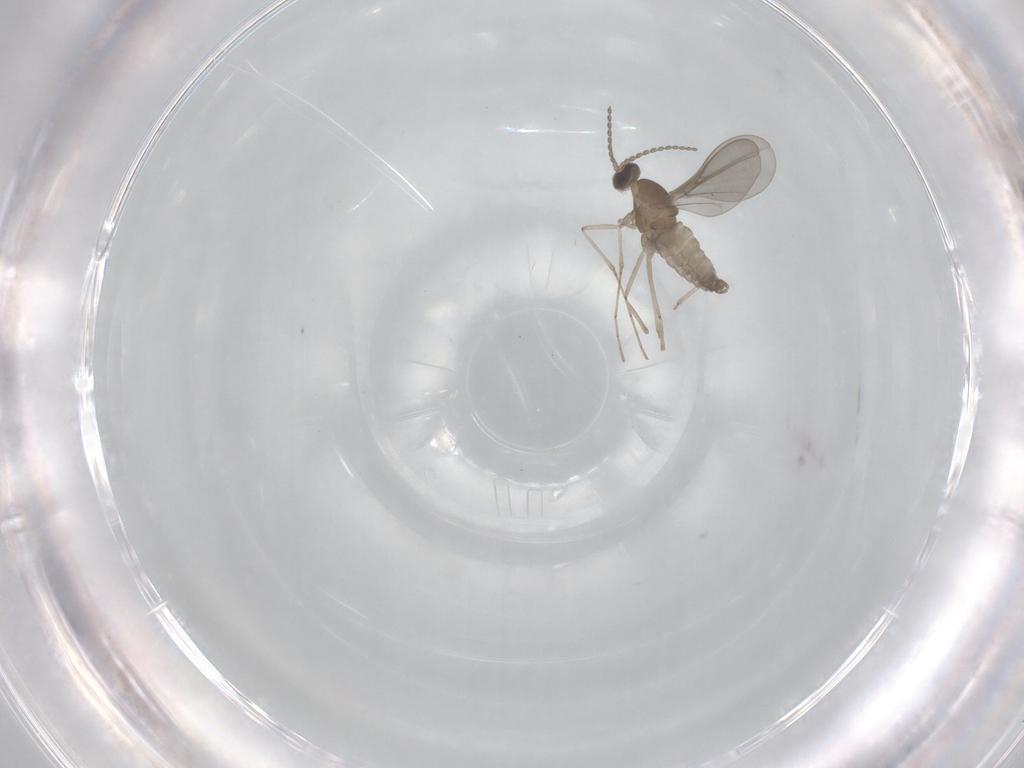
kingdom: Animalia
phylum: Arthropoda
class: Insecta
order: Diptera
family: Cecidomyiidae
